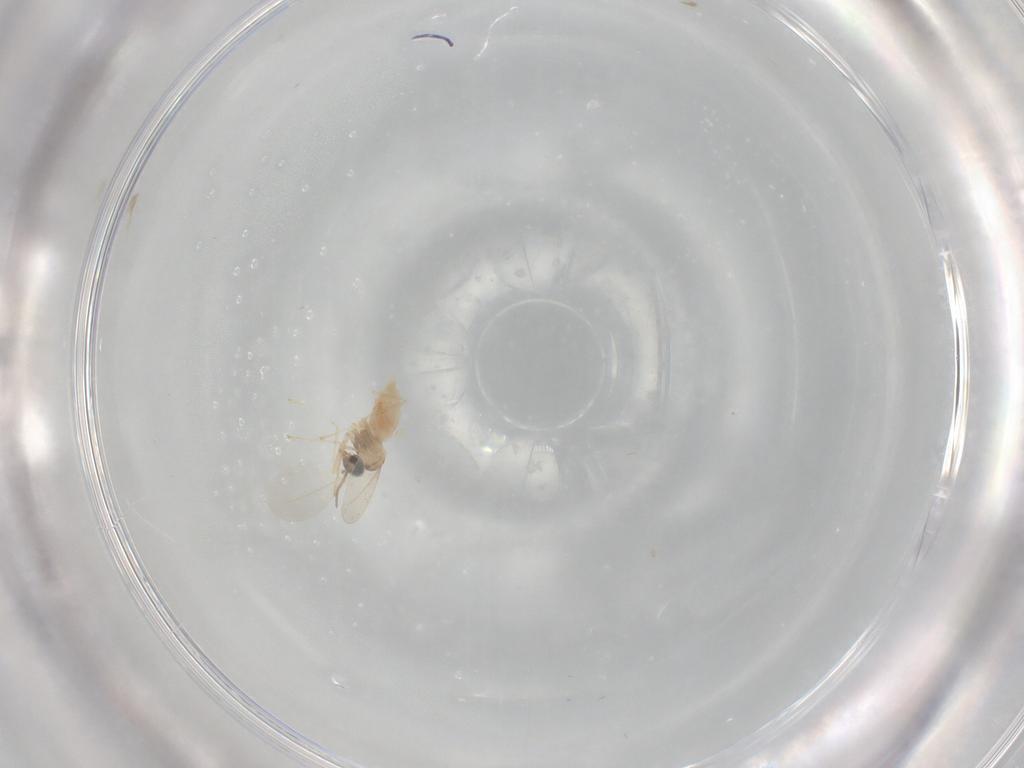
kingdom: Animalia
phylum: Arthropoda
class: Insecta
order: Diptera
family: Cecidomyiidae
